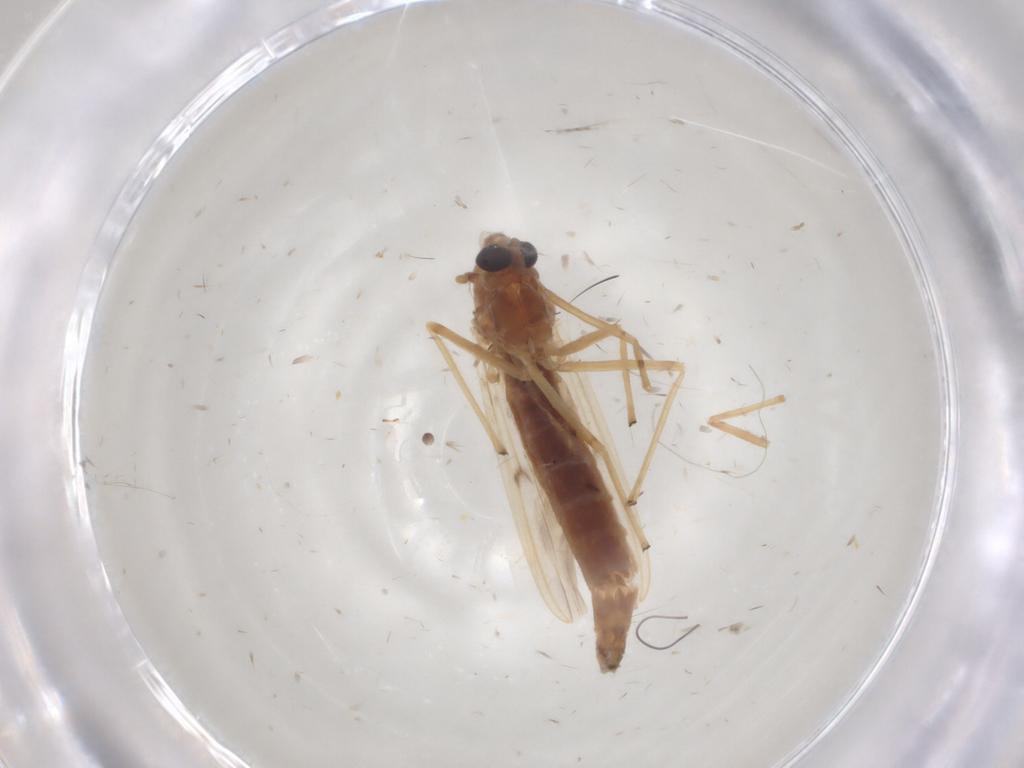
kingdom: Animalia
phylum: Arthropoda
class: Insecta
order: Diptera
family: Chironomidae
